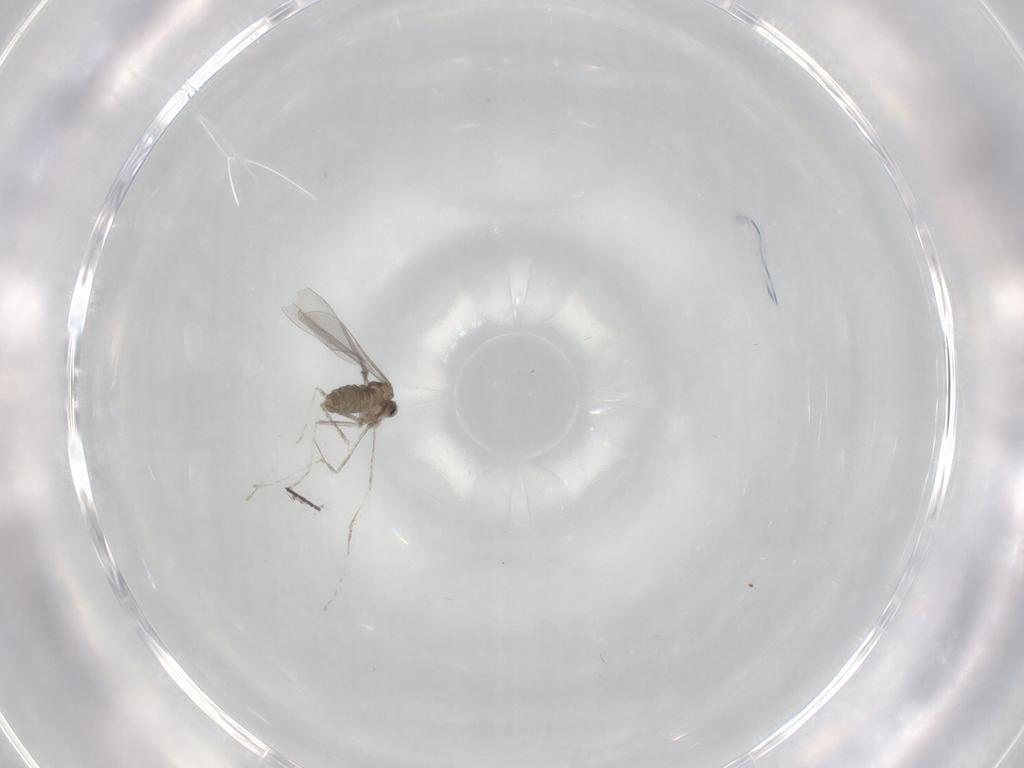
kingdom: Animalia
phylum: Arthropoda
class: Insecta
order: Diptera
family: Cecidomyiidae
